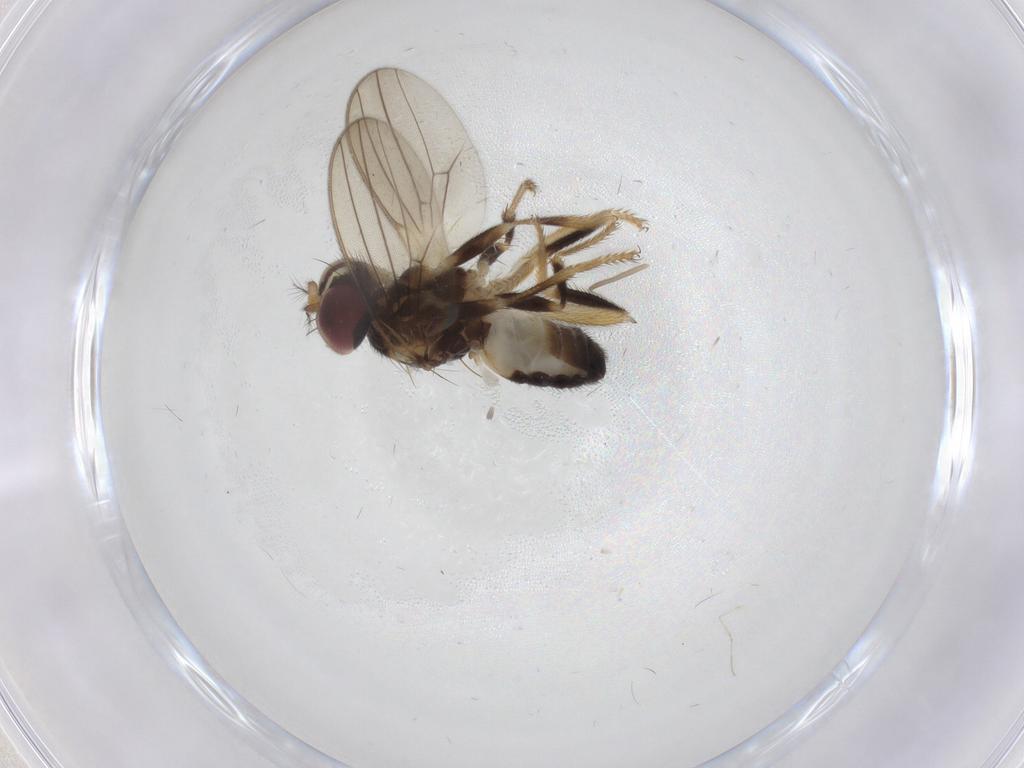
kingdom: Animalia
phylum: Arthropoda
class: Insecta
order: Diptera
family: Periscelididae
